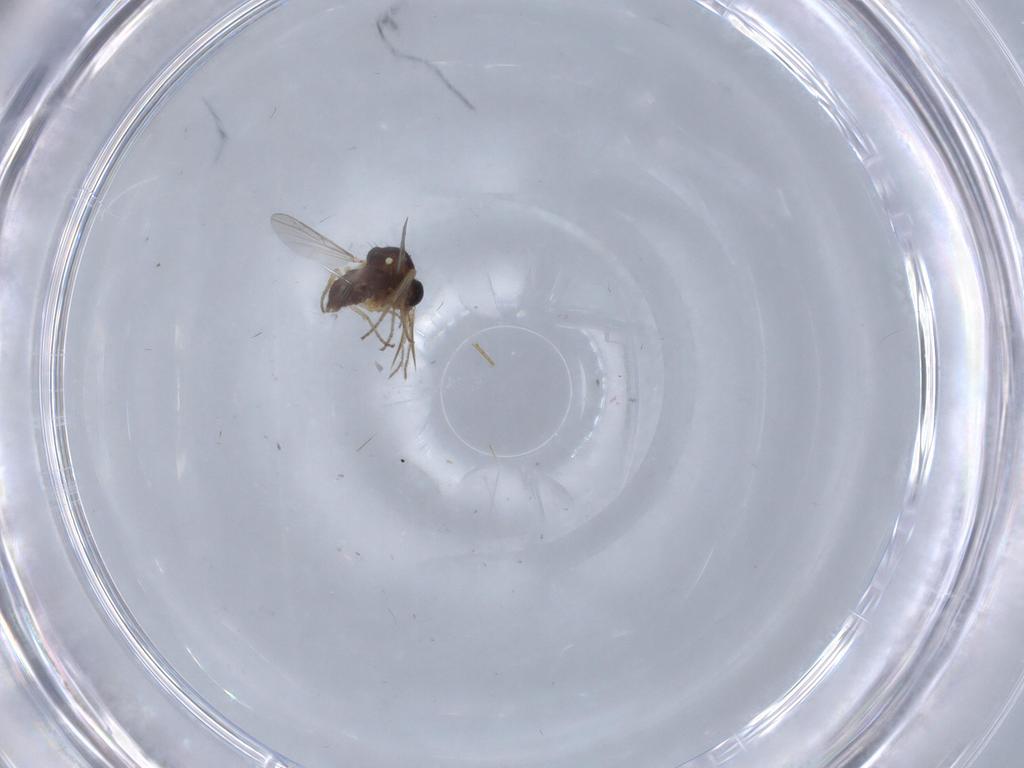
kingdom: Animalia
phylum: Arthropoda
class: Insecta
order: Diptera
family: Ceratopogonidae
